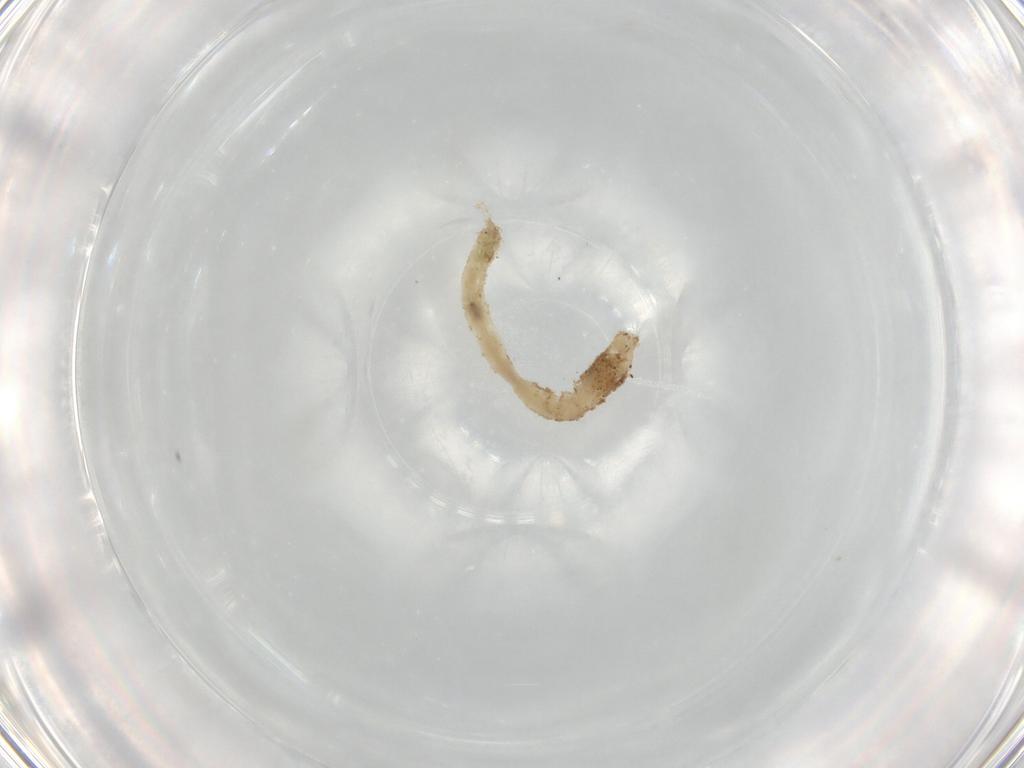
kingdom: Animalia
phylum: Arthropoda
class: Insecta
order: Diptera
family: Chironomidae
